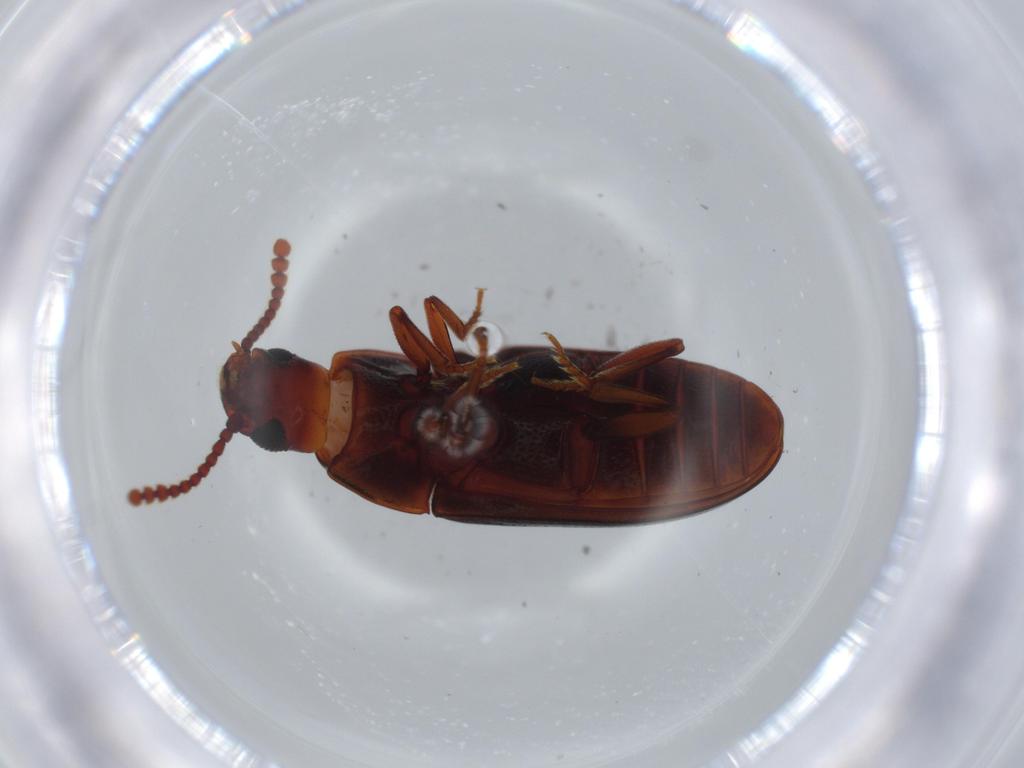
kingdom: Animalia
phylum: Arthropoda
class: Insecta
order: Coleoptera
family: Erotylidae
